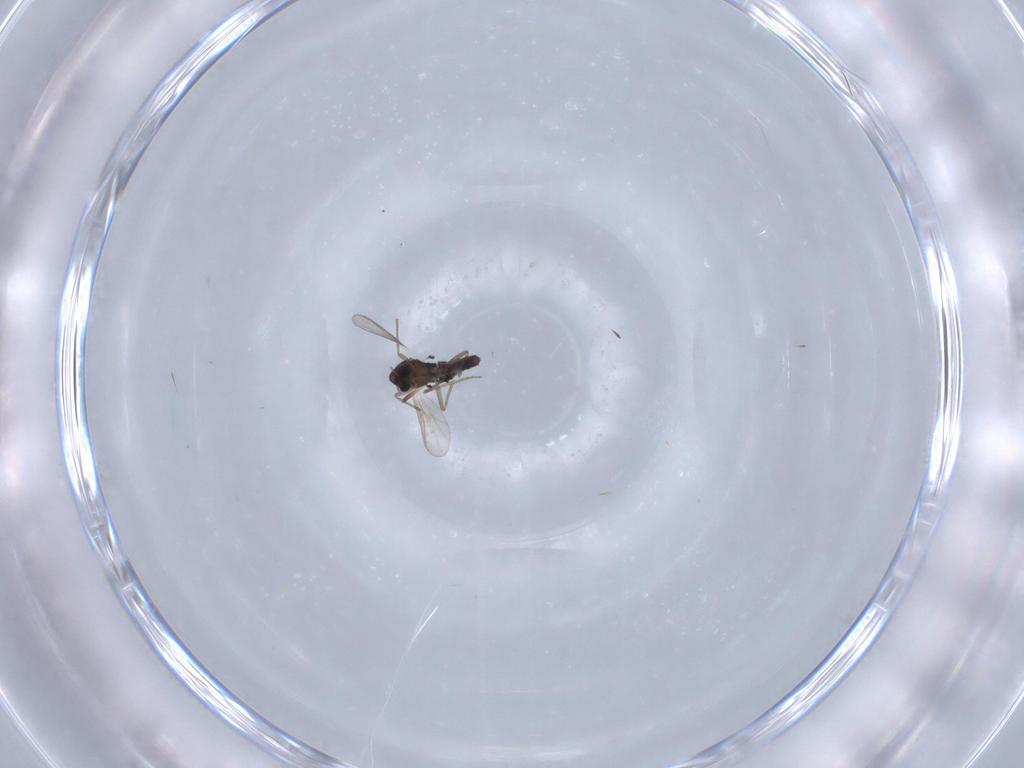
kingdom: Animalia
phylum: Arthropoda
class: Insecta
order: Diptera
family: Chironomidae
